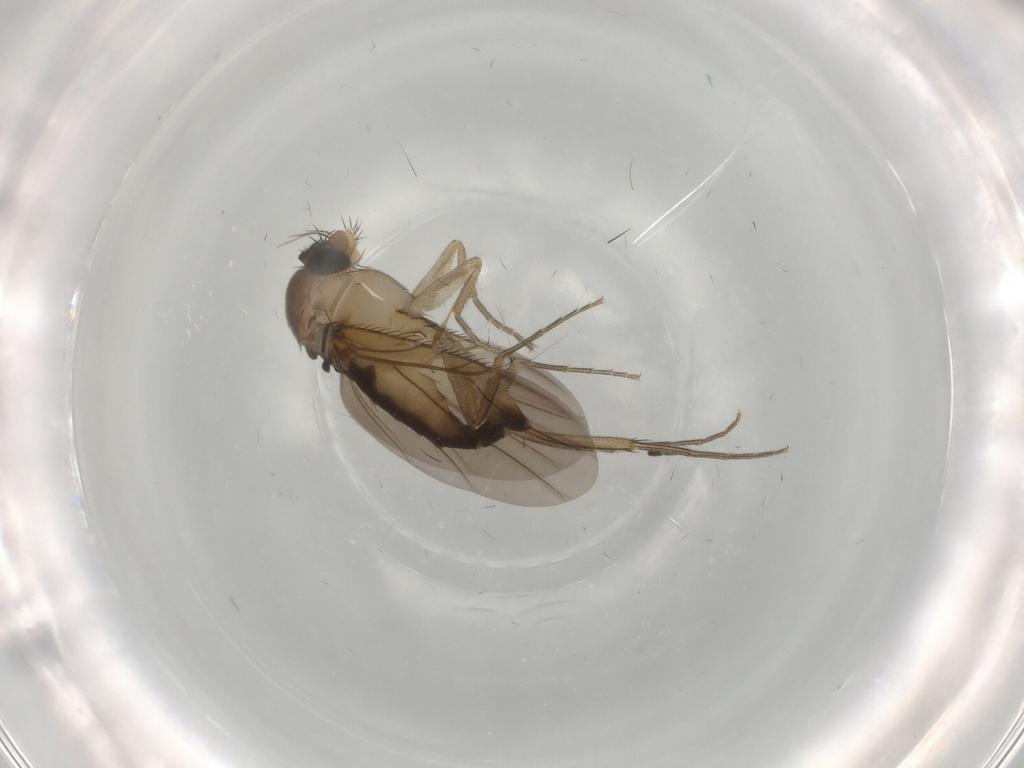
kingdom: Animalia
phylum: Arthropoda
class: Insecta
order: Diptera
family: Phoridae
